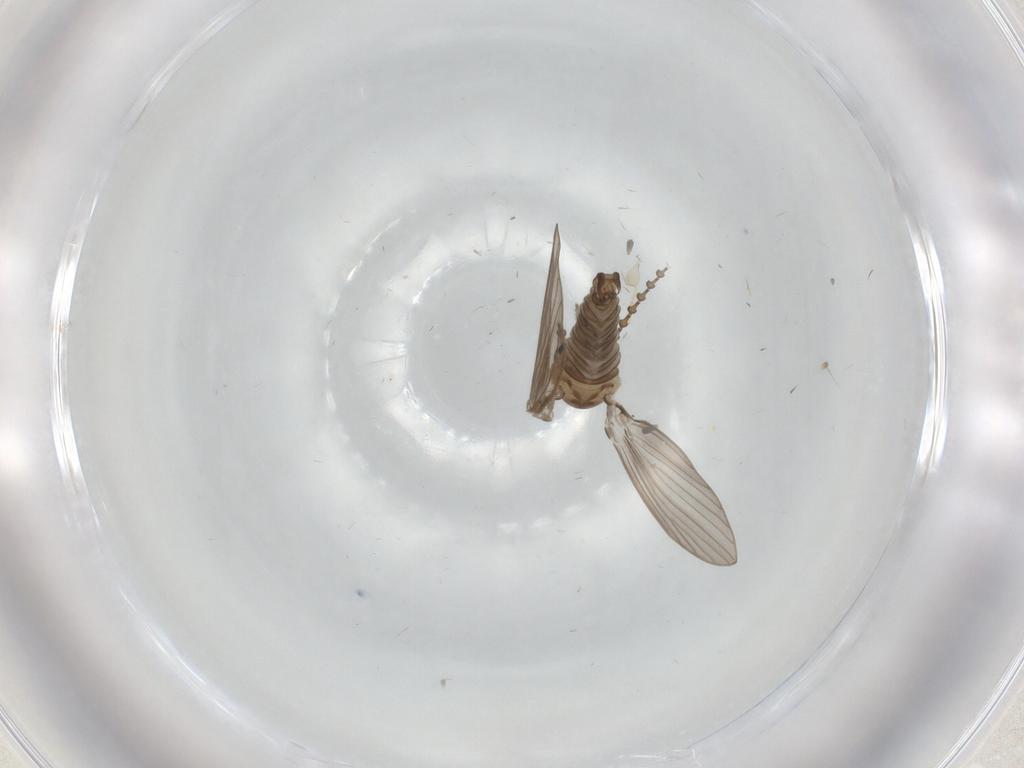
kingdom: Animalia
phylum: Arthropoda
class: Insecta
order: Diptera
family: Psychodidae
